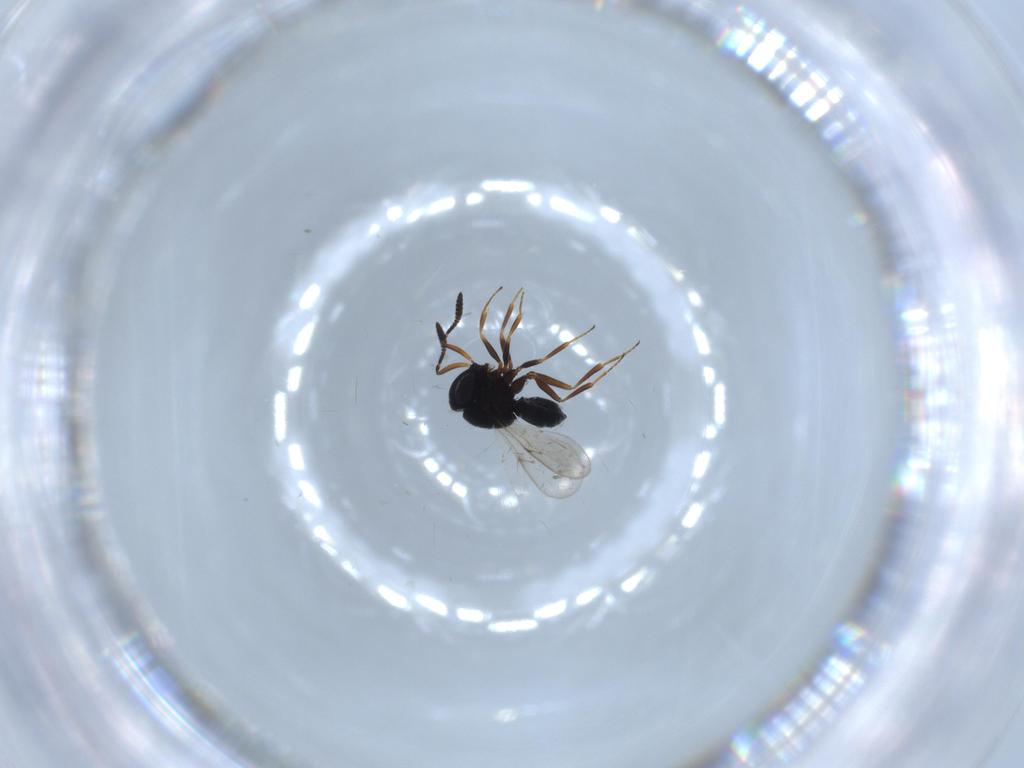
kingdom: Animalia
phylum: Arthropoda
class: Insecta
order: Hymenoptera
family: Scelionidae
